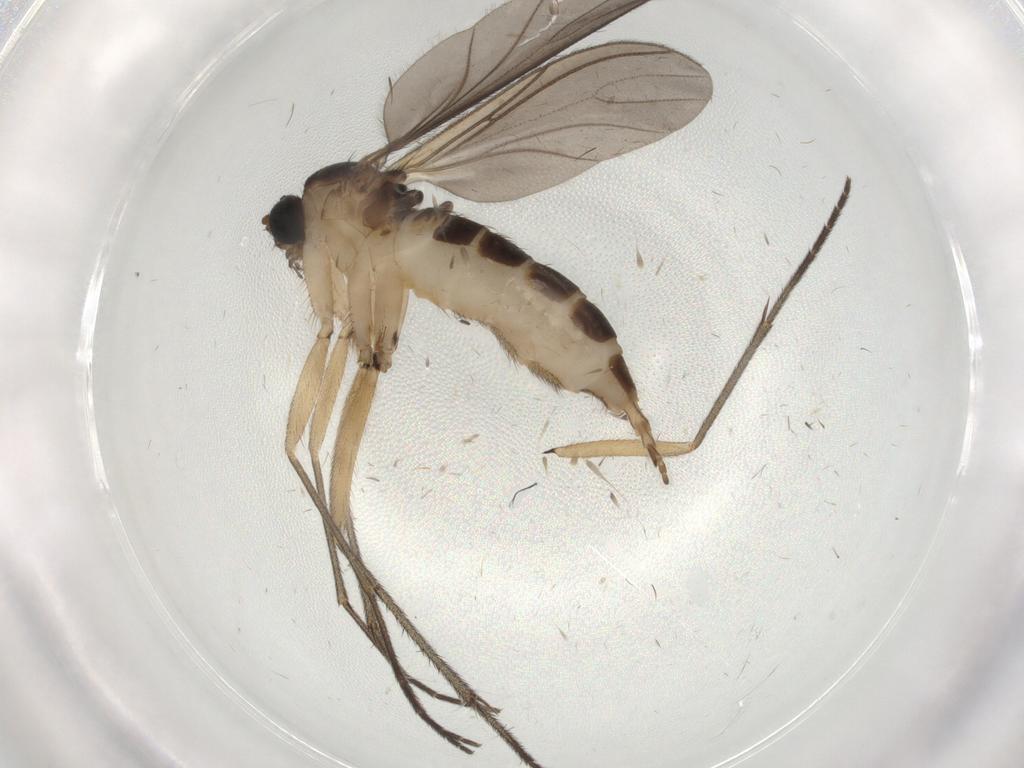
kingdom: Animalia
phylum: Arthropoda
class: Insecta
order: Diptera
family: Sciaridae
